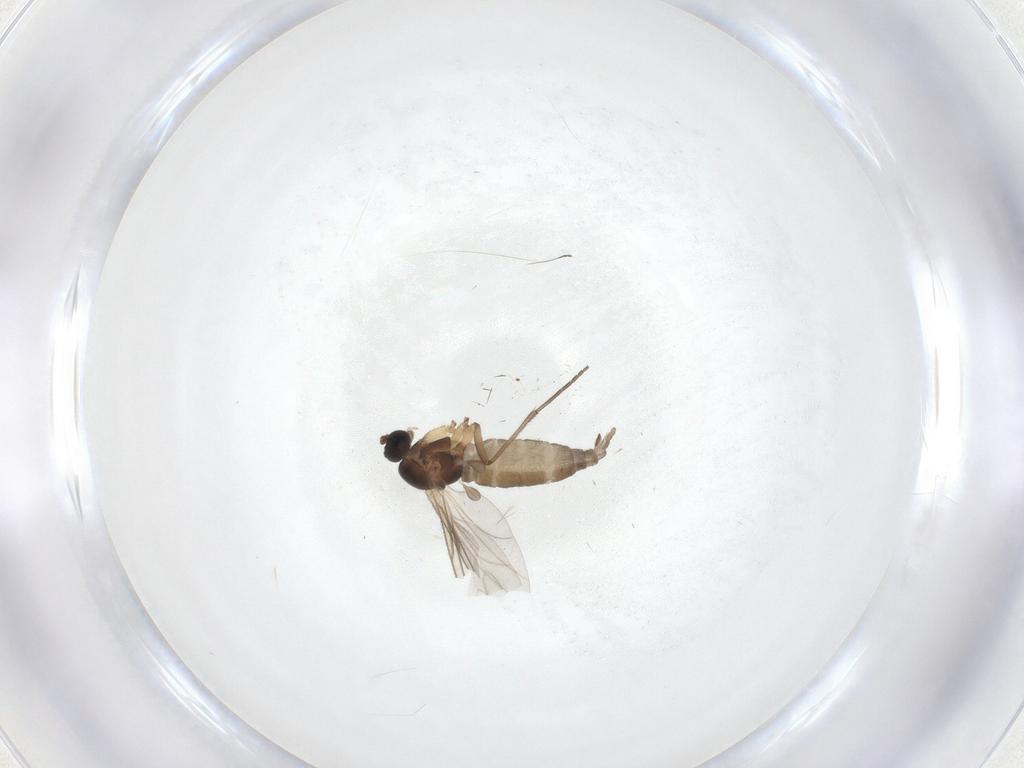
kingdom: Animalia
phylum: Arthropoda
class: Insecta
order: Diptera
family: Sciaridae
